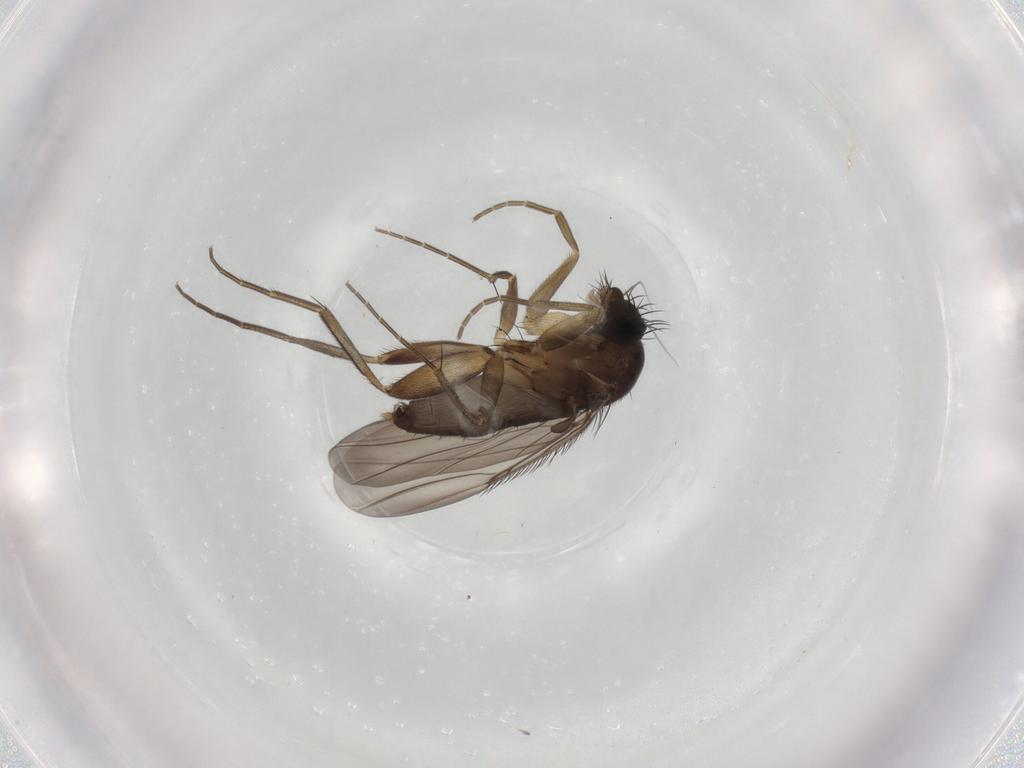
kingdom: Animalia
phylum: Arthropoda
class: Insecta
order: Diptera
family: Phoridae
